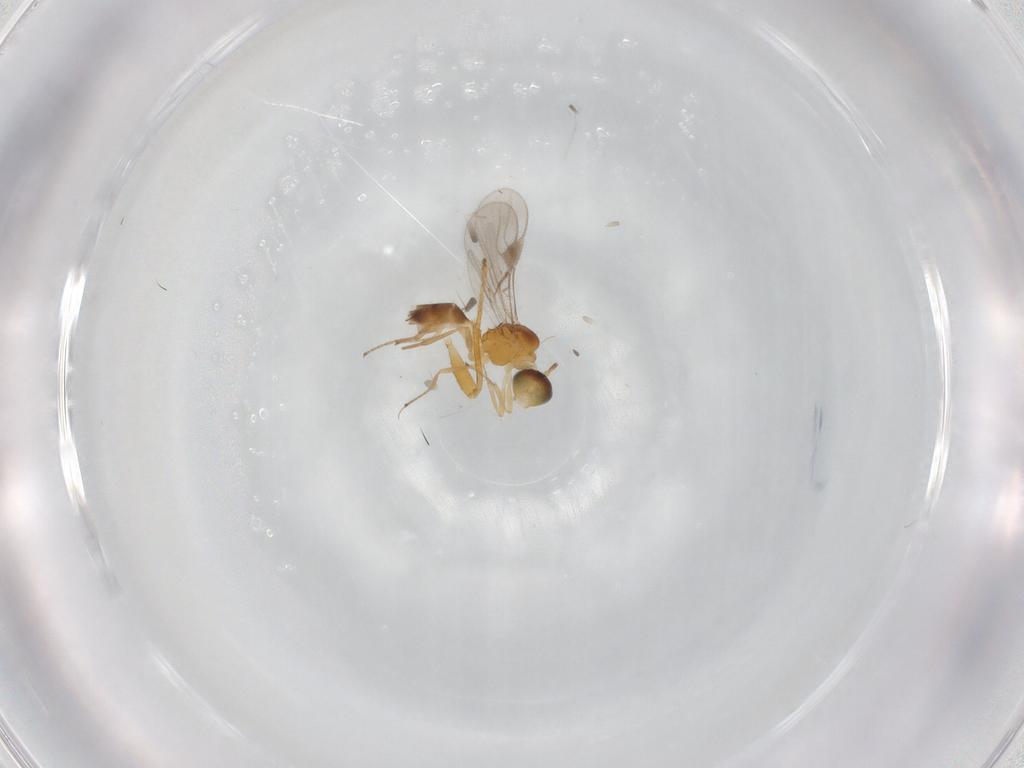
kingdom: Animalia
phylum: Arthropoda
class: Insecta
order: Hymenoptera
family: Braconidae
